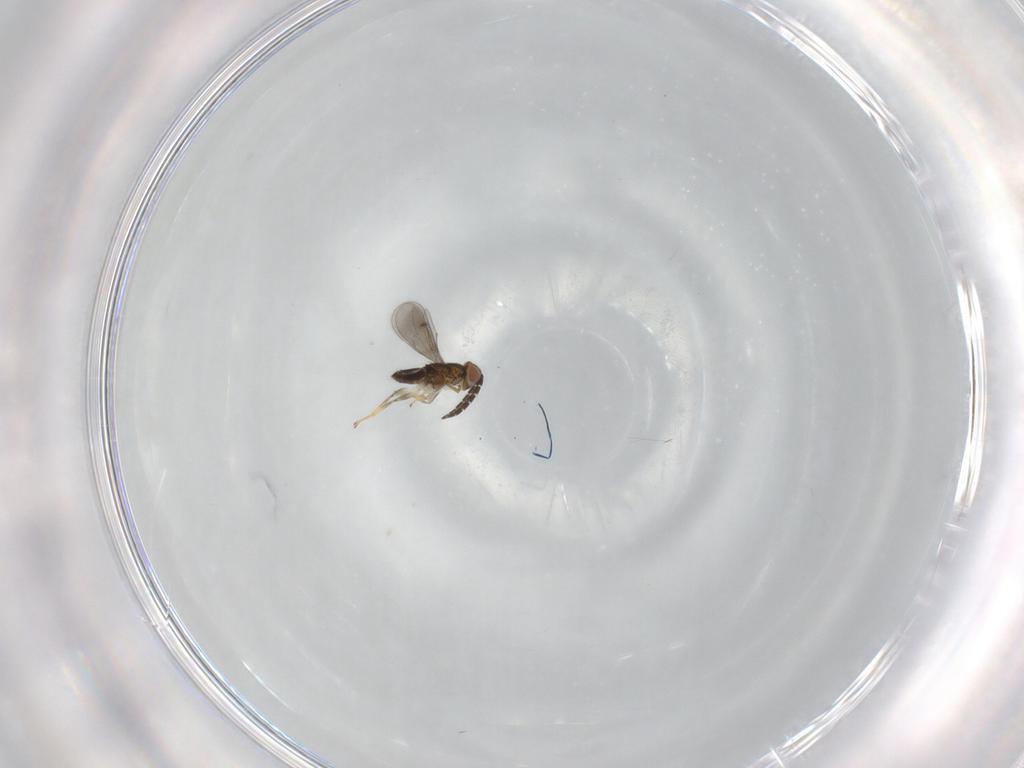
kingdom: Animalia
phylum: Arthropoda
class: Insecta
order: Hymenoptera
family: Aphelinidae
